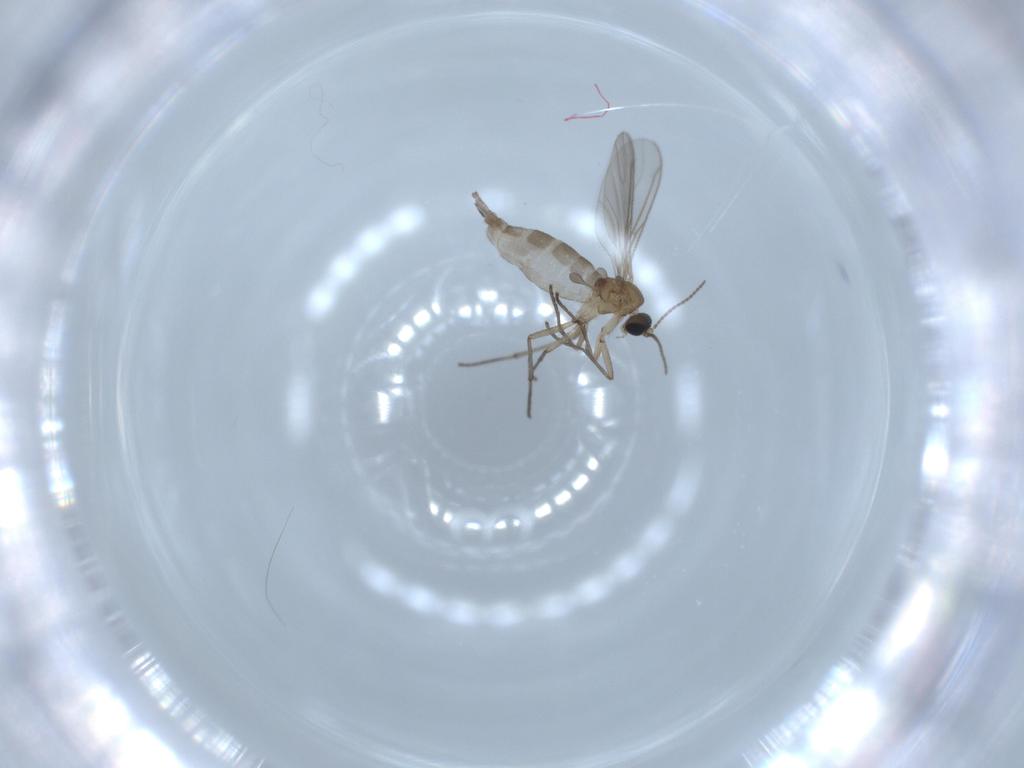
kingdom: Animalia
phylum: Arthropoda
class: Insecta
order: Diptera
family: Sciaridae
